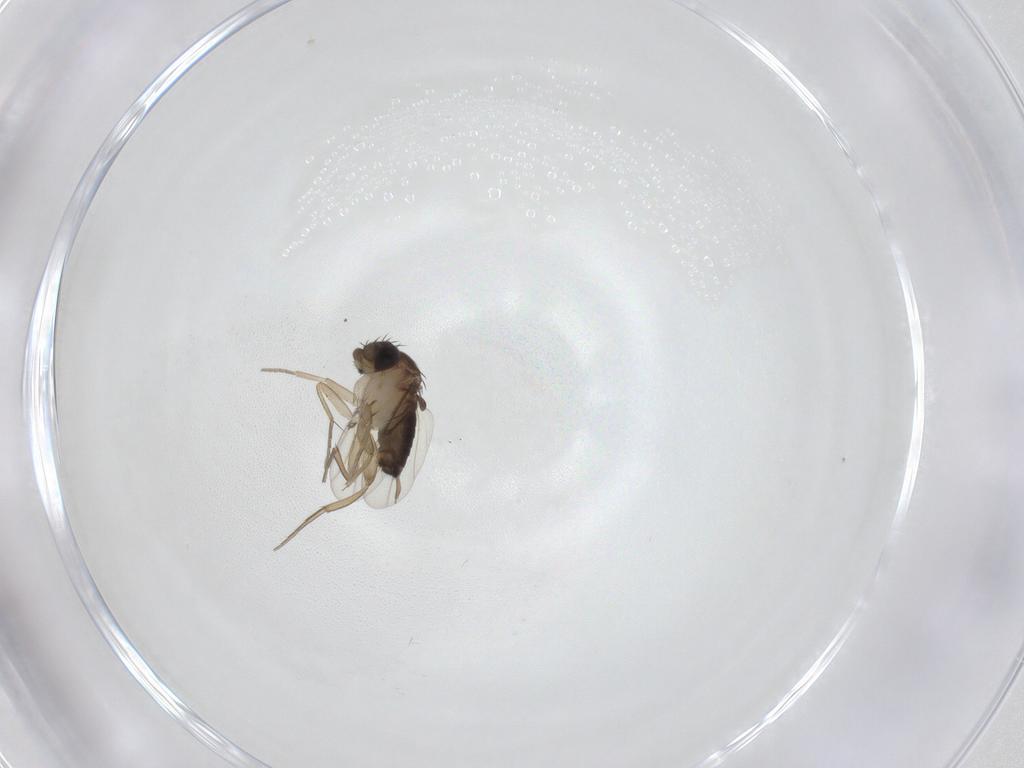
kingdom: Animalia
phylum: Arthropoda
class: Insecta
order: Diptera
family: Phoridae
